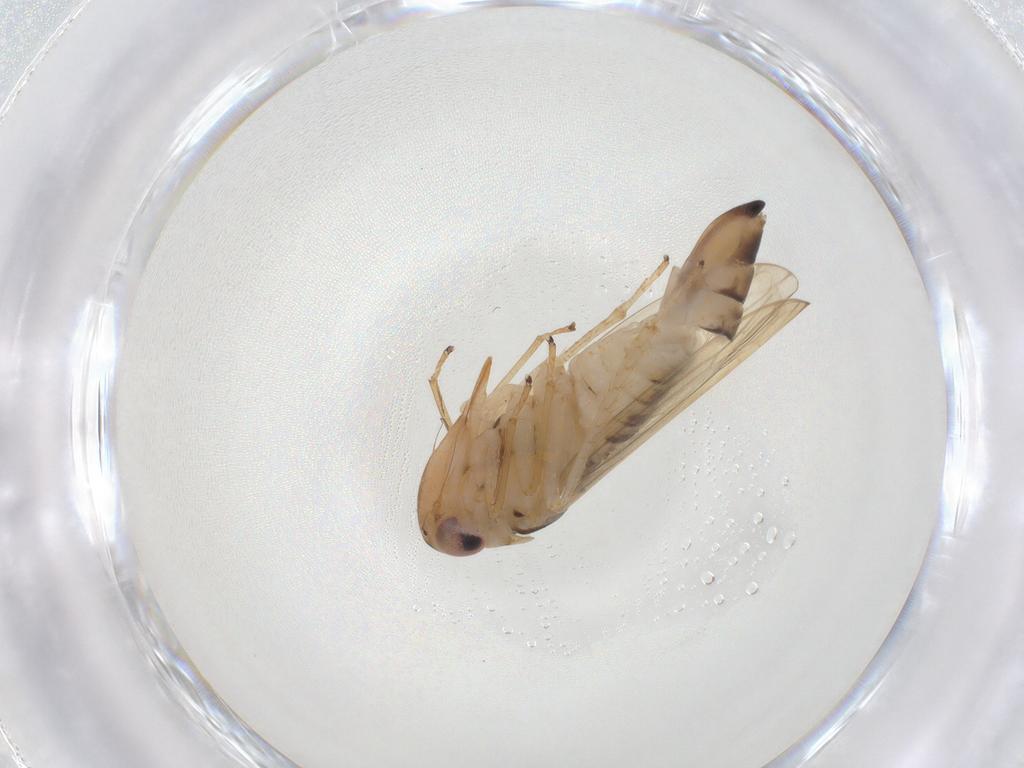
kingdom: Animalia
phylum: Arthropoda
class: Insecta
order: Hemiptera
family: Cicadellidae
